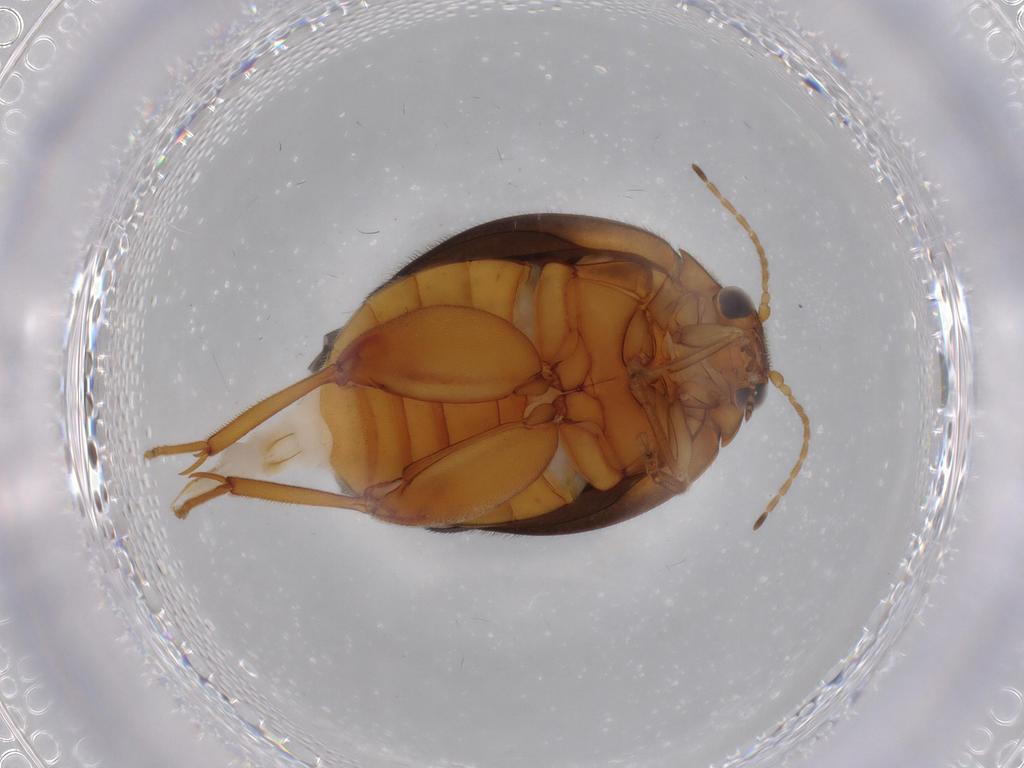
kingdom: Animalia
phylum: Arthropoda
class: Insecta
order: Coleoptera
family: Scirtidae
